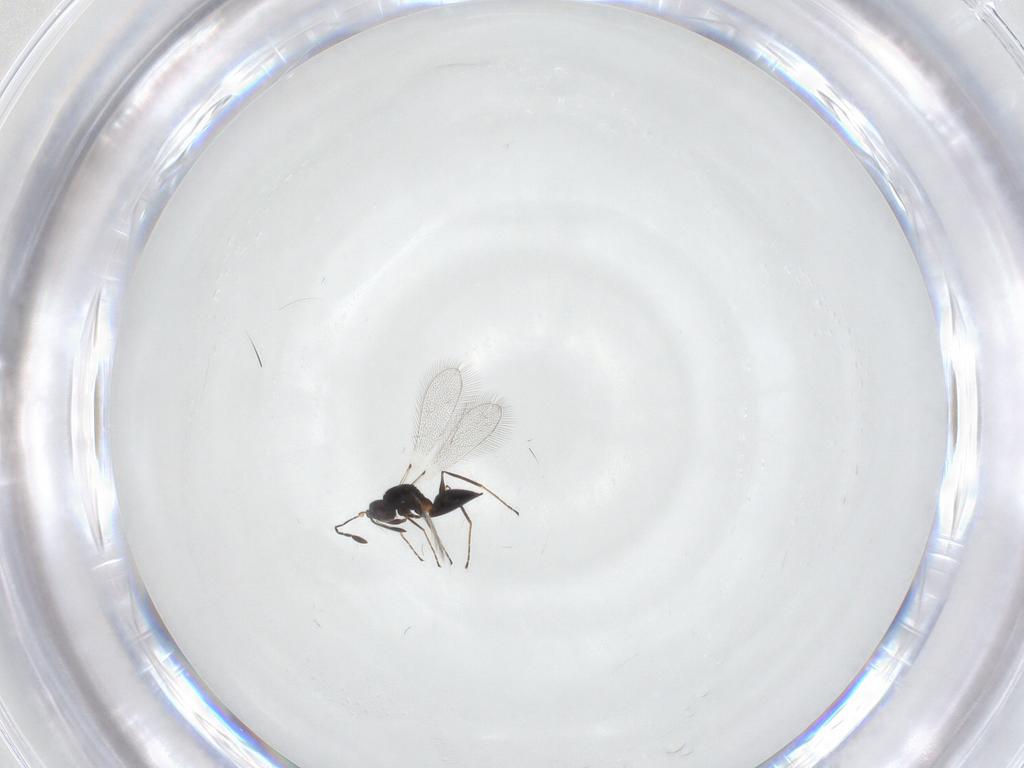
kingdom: Animalia
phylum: Arthropoda
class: Insecta
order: Hymenoptera
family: Mymaridae
